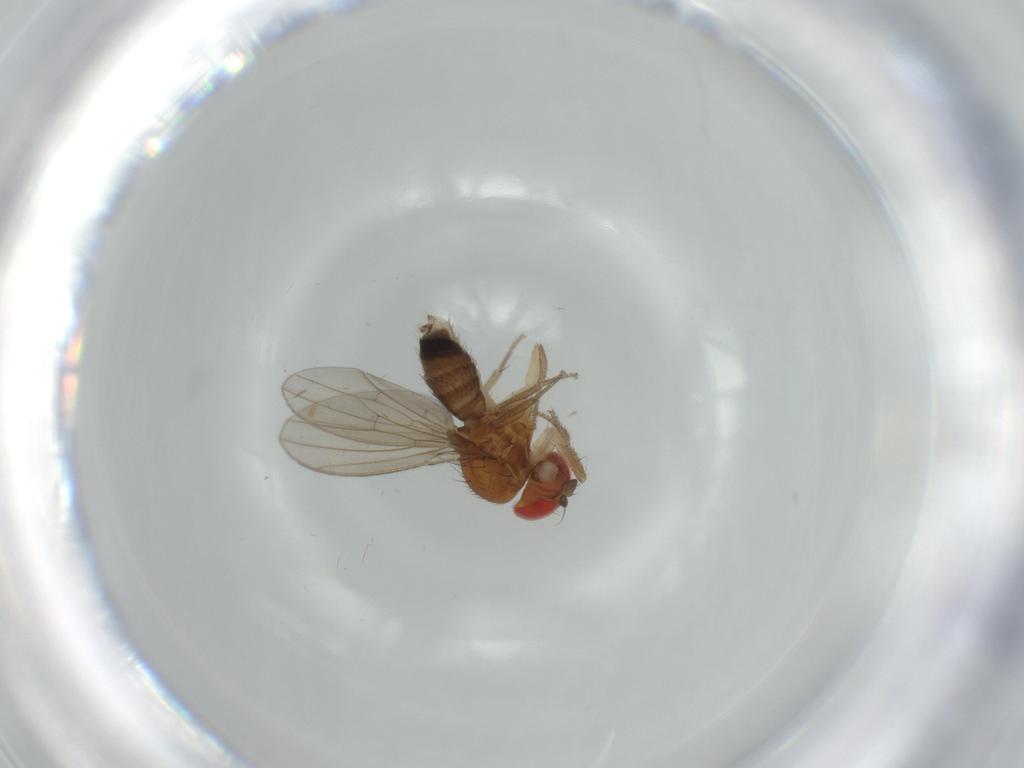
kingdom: Animalia
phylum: Arthropoda
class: Insecta
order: Diptera
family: Drosophilidae
